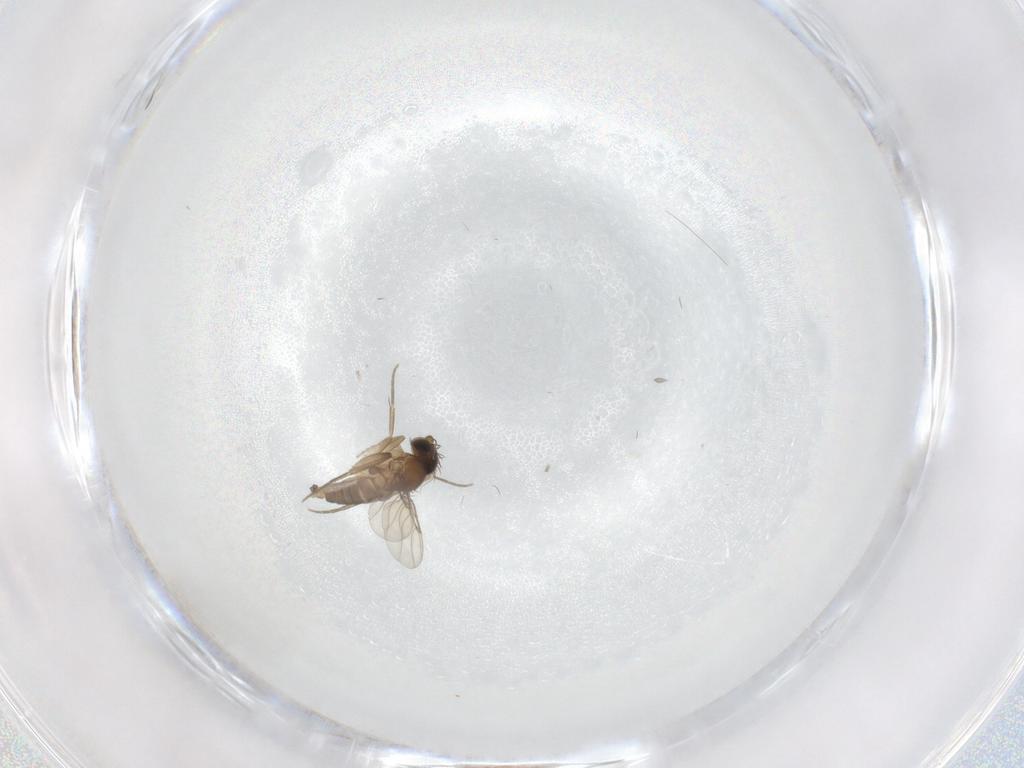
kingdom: Animalia
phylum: Arthropoda
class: Insecta
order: Diptera
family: Phoridae
